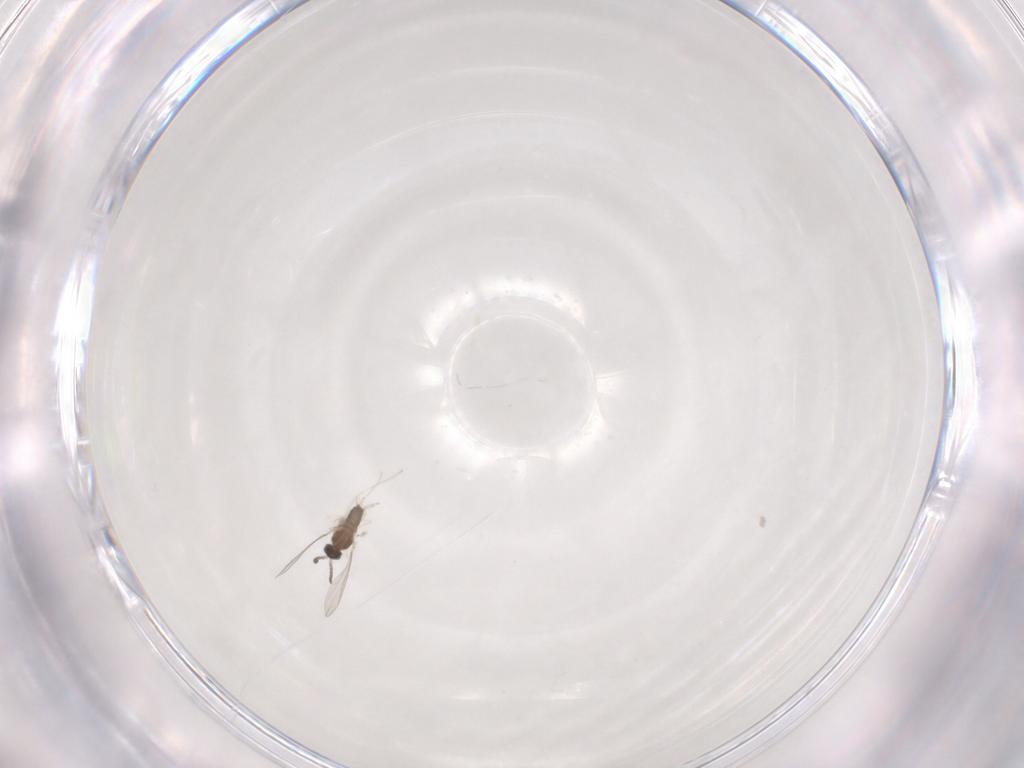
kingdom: Animalia
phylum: Arthropoda
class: Insecta
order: Diptera
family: Cecidomyiidae
